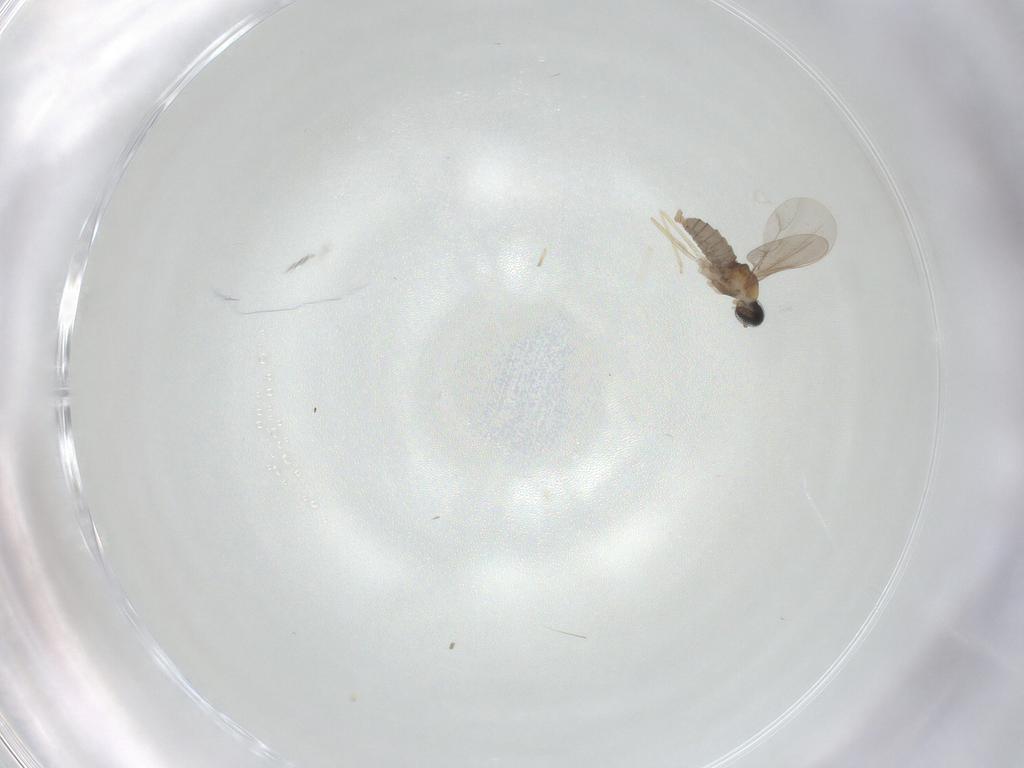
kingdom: Animalia
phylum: Arthropoda
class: Insecta
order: Diptera
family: Cecidomyiidae
